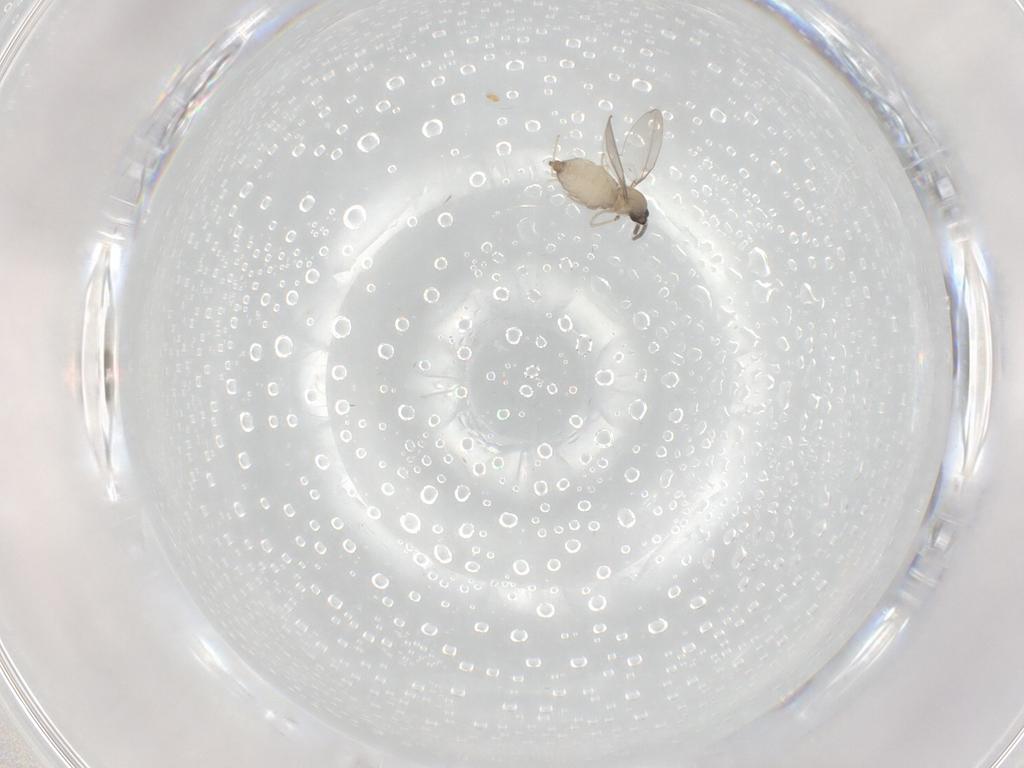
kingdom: Animalia
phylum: Arthropoda
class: Insecta
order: Diptera
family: Cecidomyiidae
